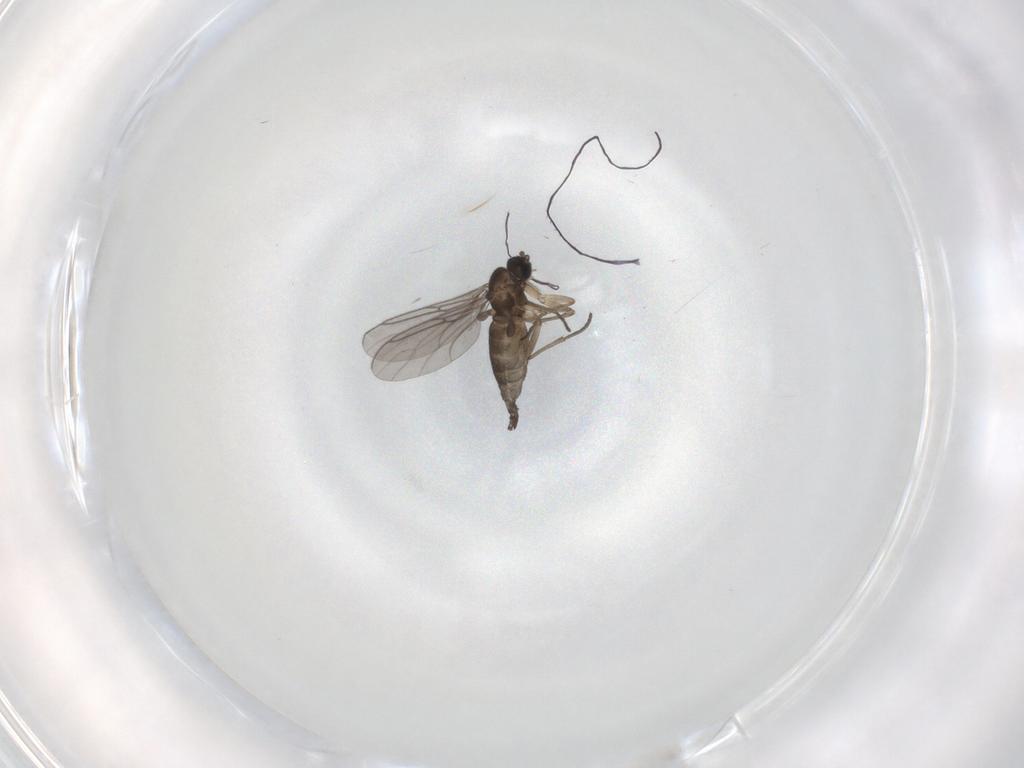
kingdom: Animalia
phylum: Arthropoda
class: Insecta
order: Diptera
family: Phoridae
